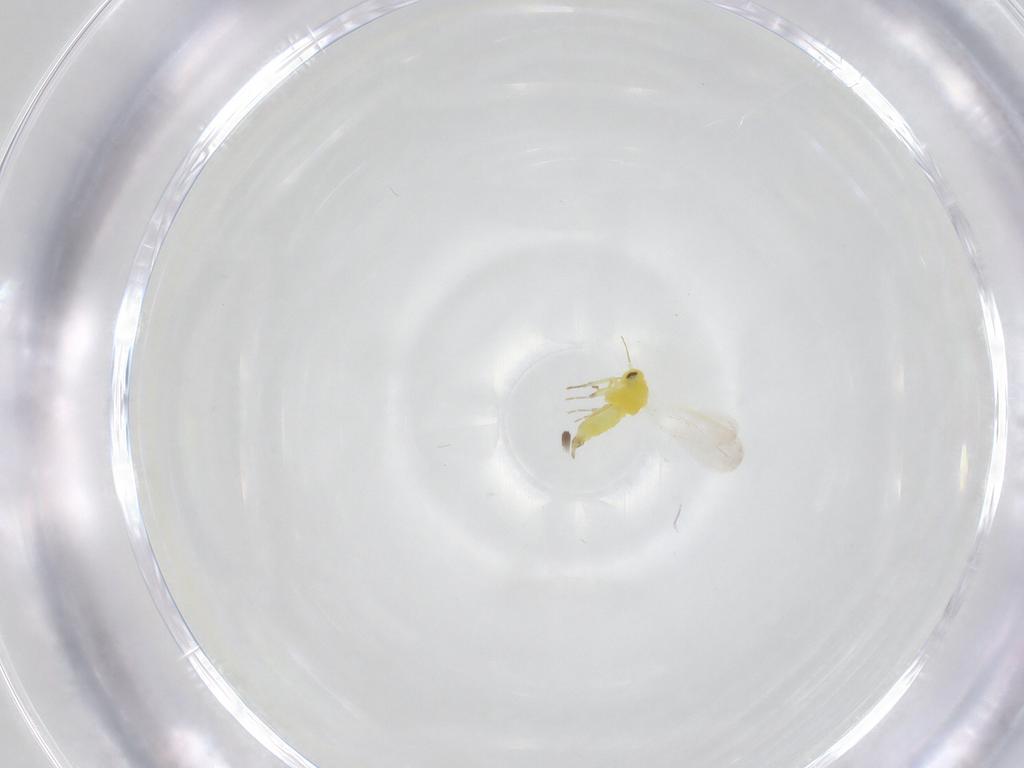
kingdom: Animalia
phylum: Arthropoda
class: Insecta
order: Hemiptera
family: Aleyrodidae
